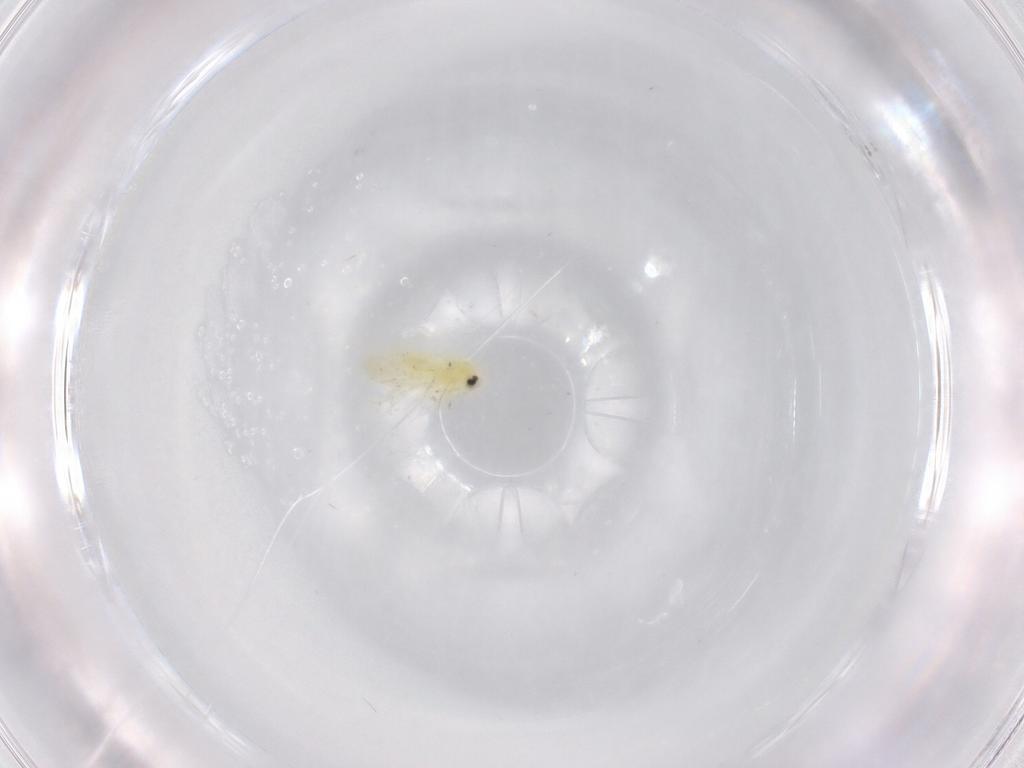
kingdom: Animalia
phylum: Arthropoda
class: Insecta
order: Hemiptera
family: Aleyrodidae
